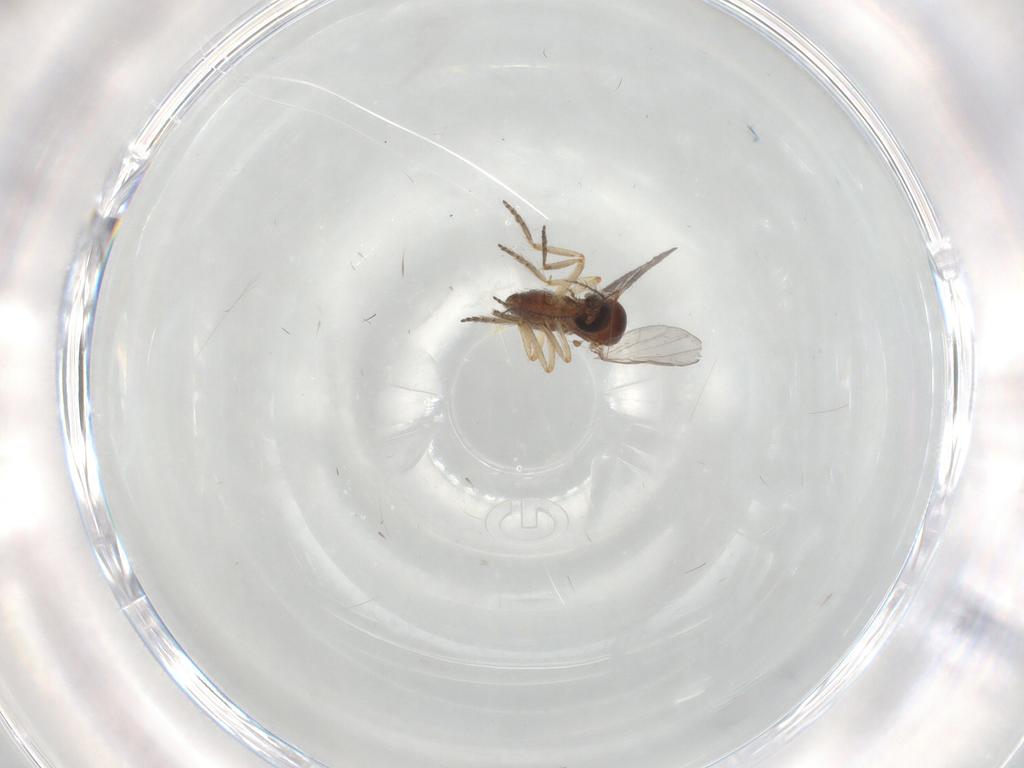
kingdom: Animalia
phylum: Arthropoda
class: Insecta
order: Diptera
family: Ceratopogonidae
